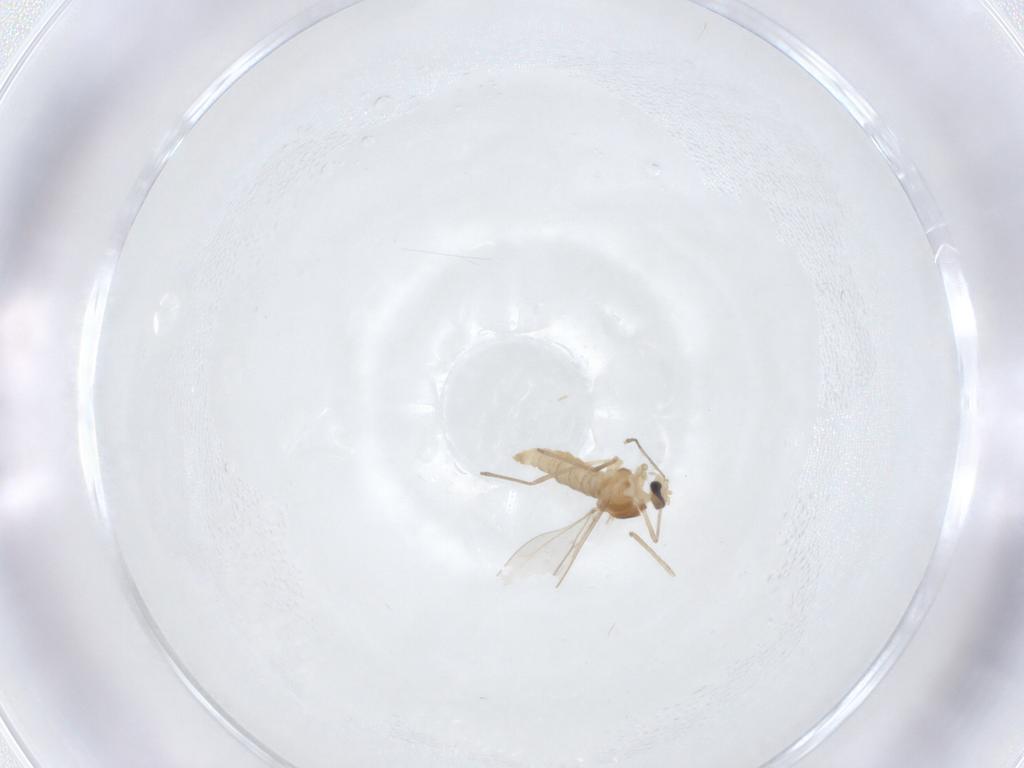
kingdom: Animalia
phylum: Arthropoda
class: Insecta
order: Diptera
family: Cecidomyiidae
